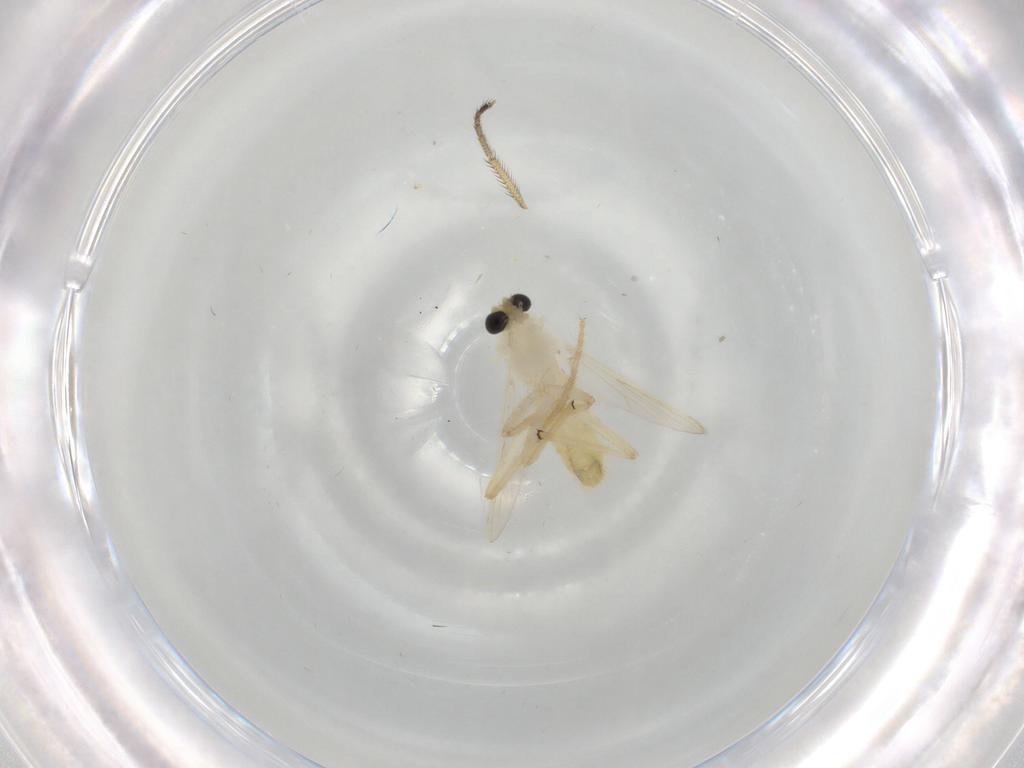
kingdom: Animalia
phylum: Arthropoda
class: Insecta
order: Diptera
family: Chironomidae
